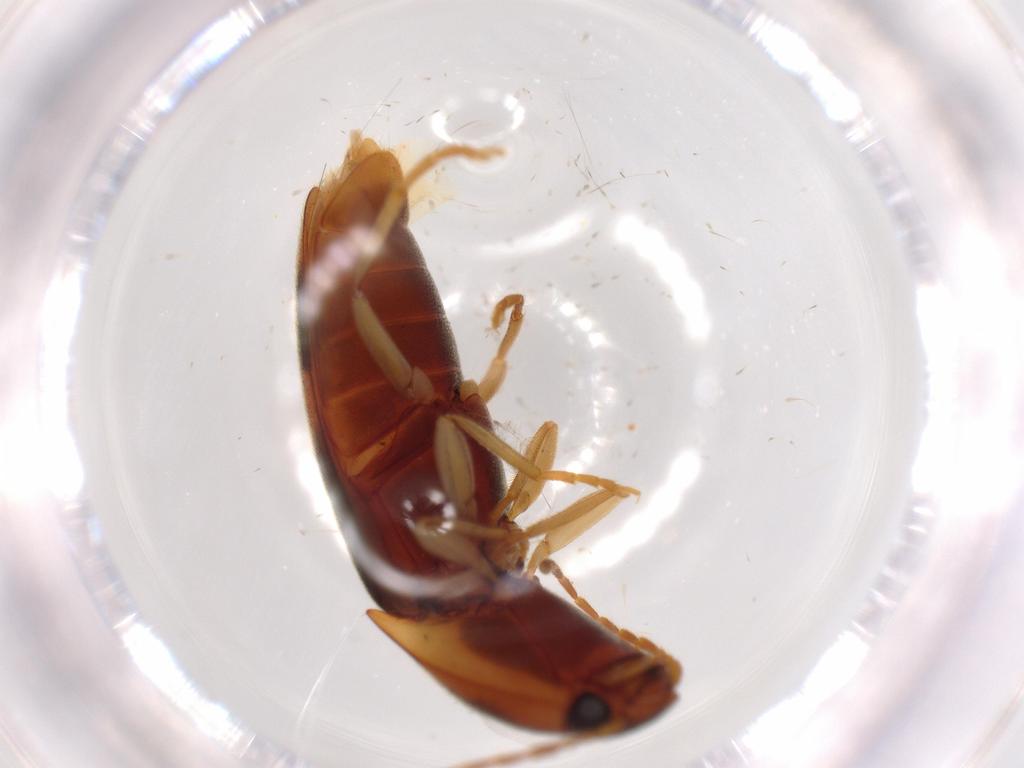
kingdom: Animalia
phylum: Arthropoda
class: Insecta
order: Coleoptera
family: Elateridae
